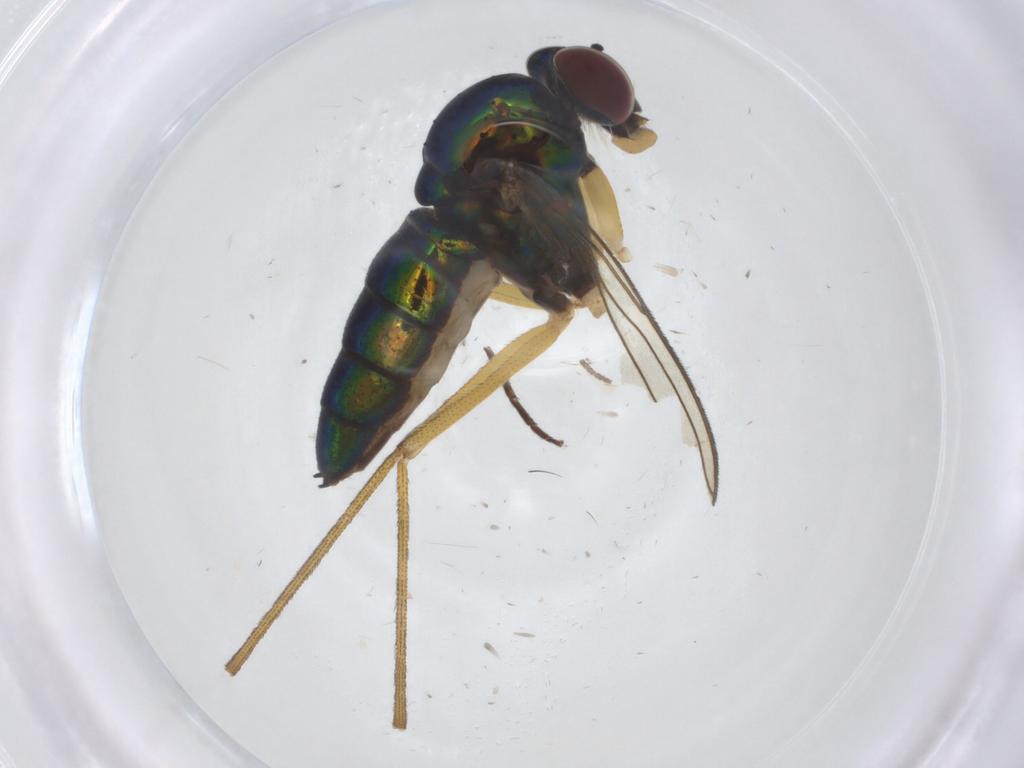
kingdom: Animalia
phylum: Arthropoda
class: Insecta
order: Diptera
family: Dolichopodidae
